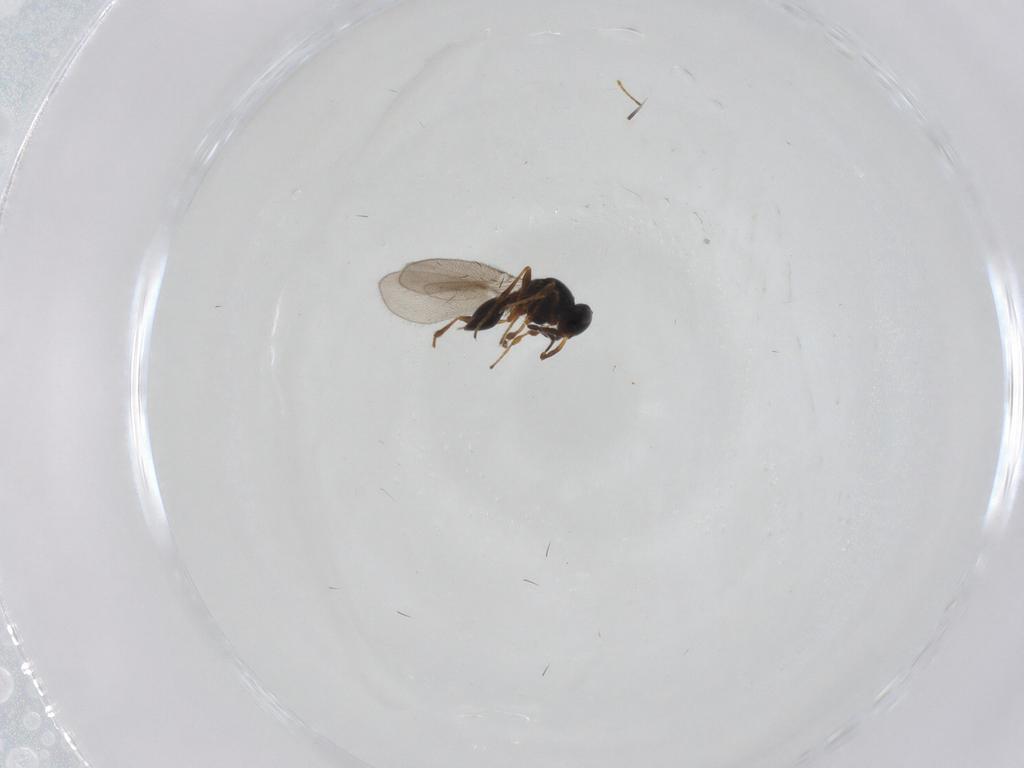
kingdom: Animalia
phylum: Arthropoda
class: Insecta
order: Hymenoptera
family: Platygastridae
